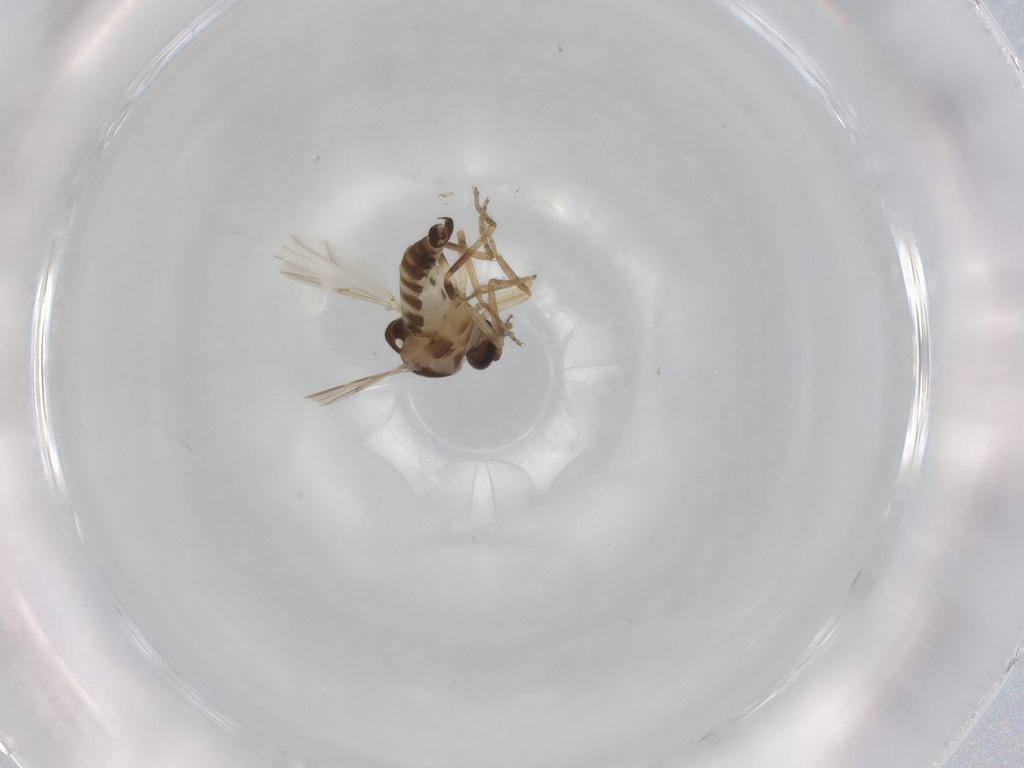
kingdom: Animalia
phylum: Arthropoda
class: Insecta
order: Diptera
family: Ceratopogonidae
